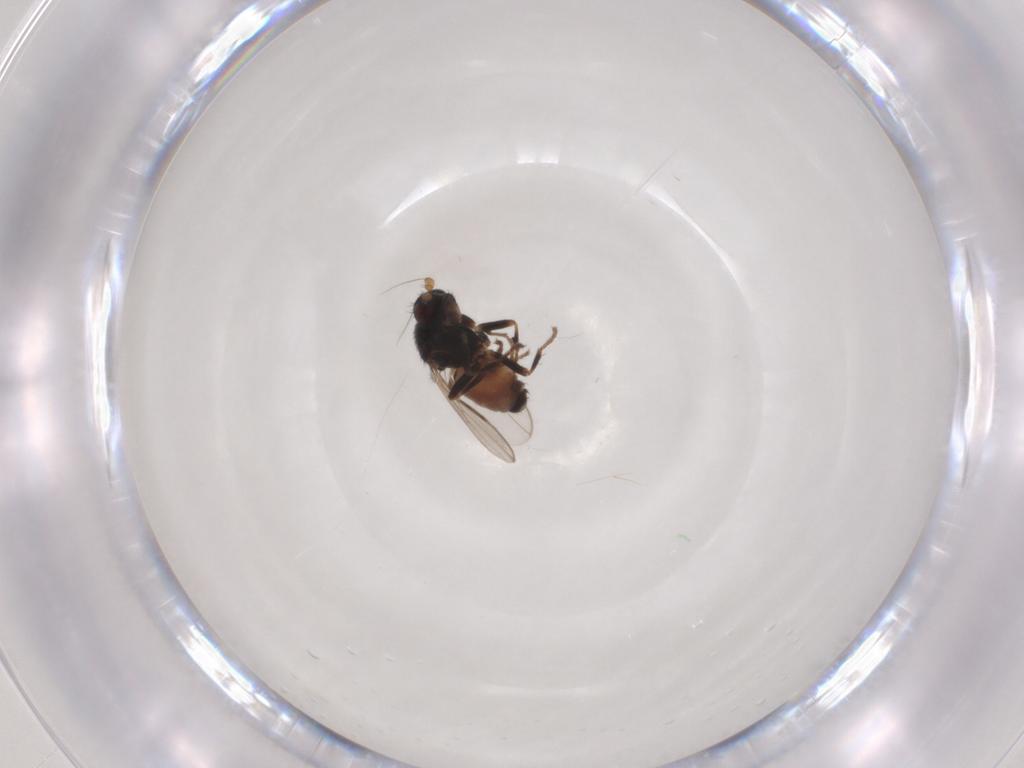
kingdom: Animalia
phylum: Arthropoda
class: Insecta
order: Diptera
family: Sphaeroceridae
